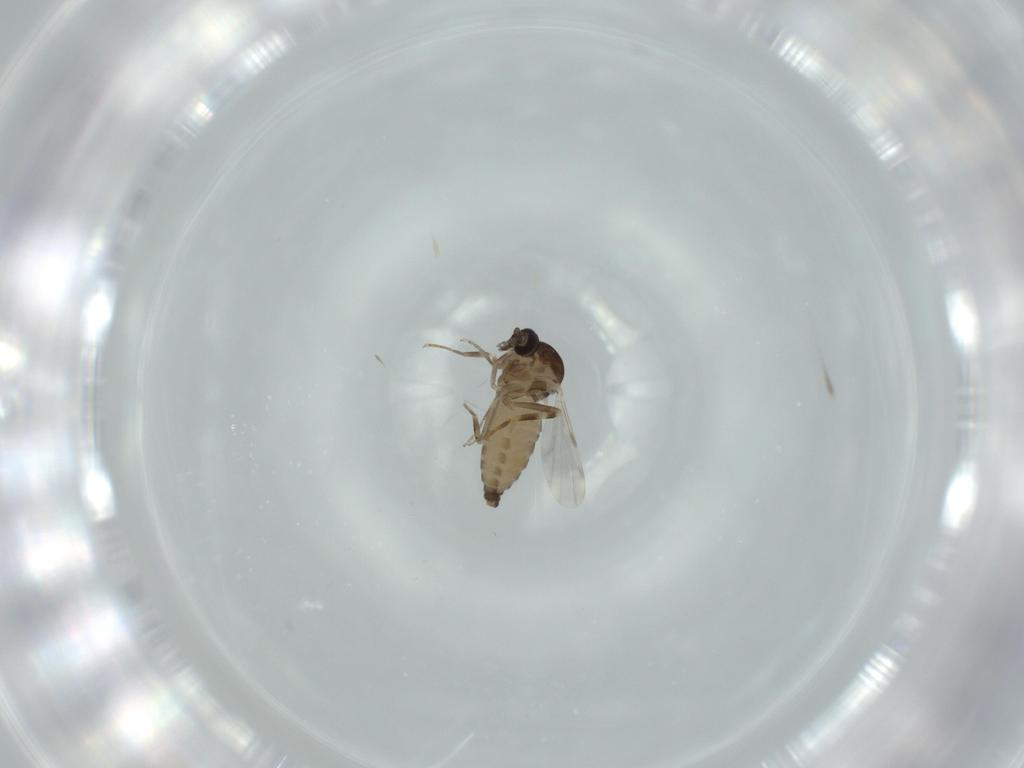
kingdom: Animalia
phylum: Arthropoda
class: Insecta
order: Diptera
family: Ceratopogonidae
